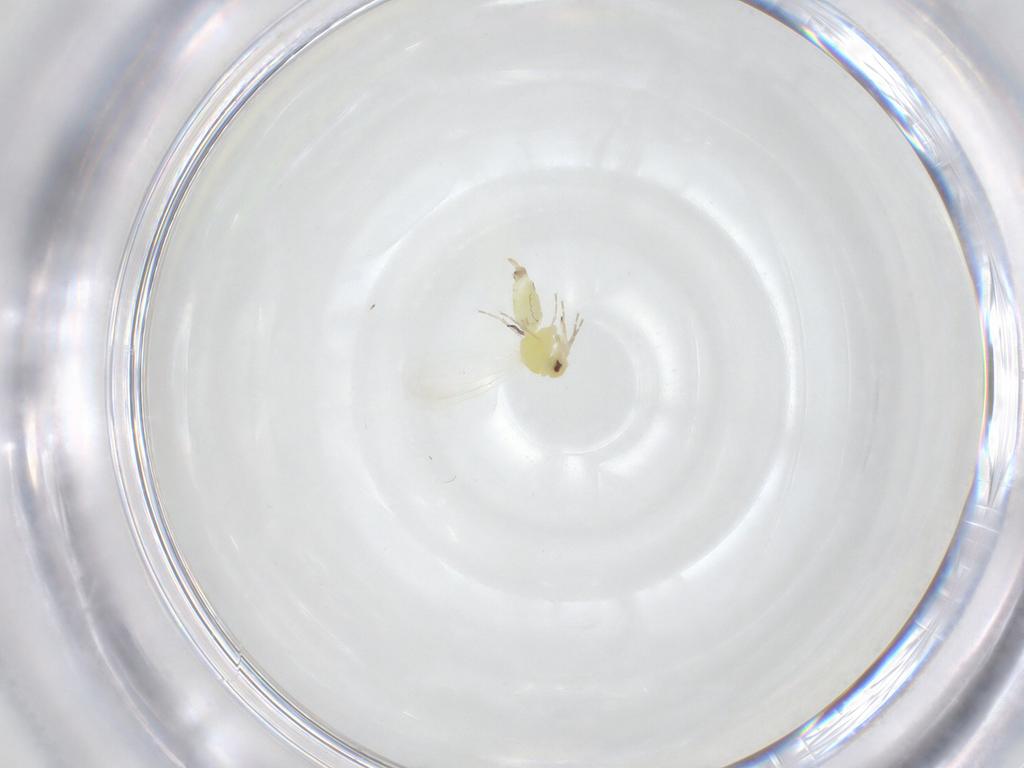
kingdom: Animalia
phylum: Arthropoda
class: Insecta
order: Hemiptera
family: Aleyrodidae
